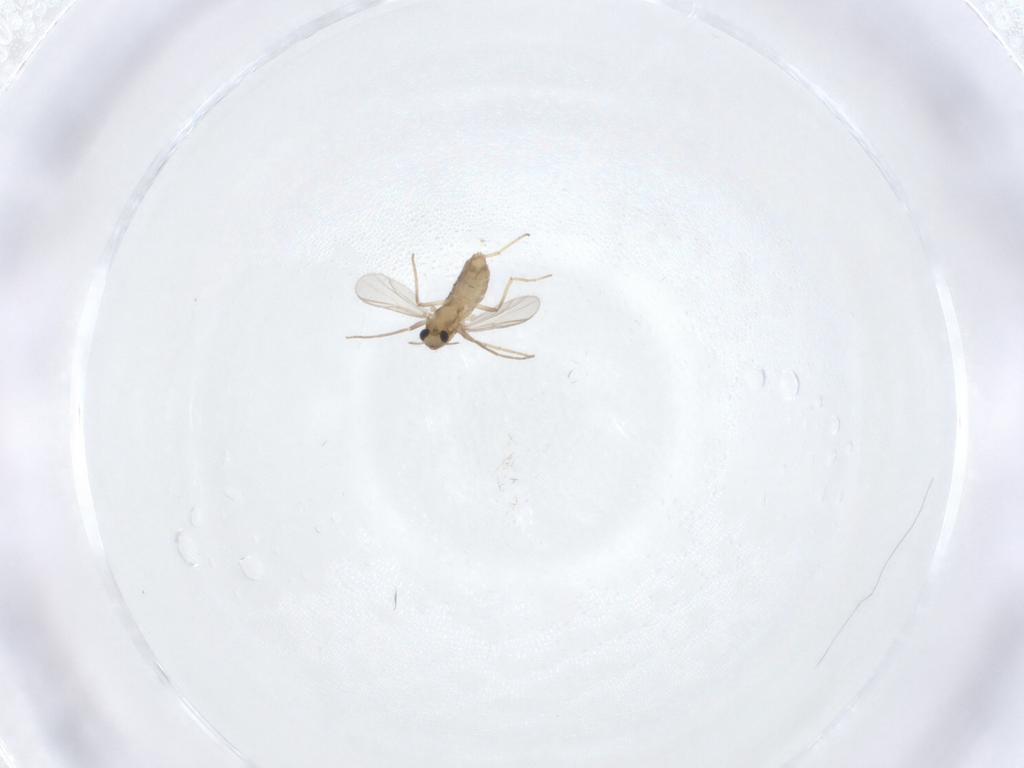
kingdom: Animalia
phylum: Arthropoda
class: Insecta
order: Diptera
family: Chironomidae
